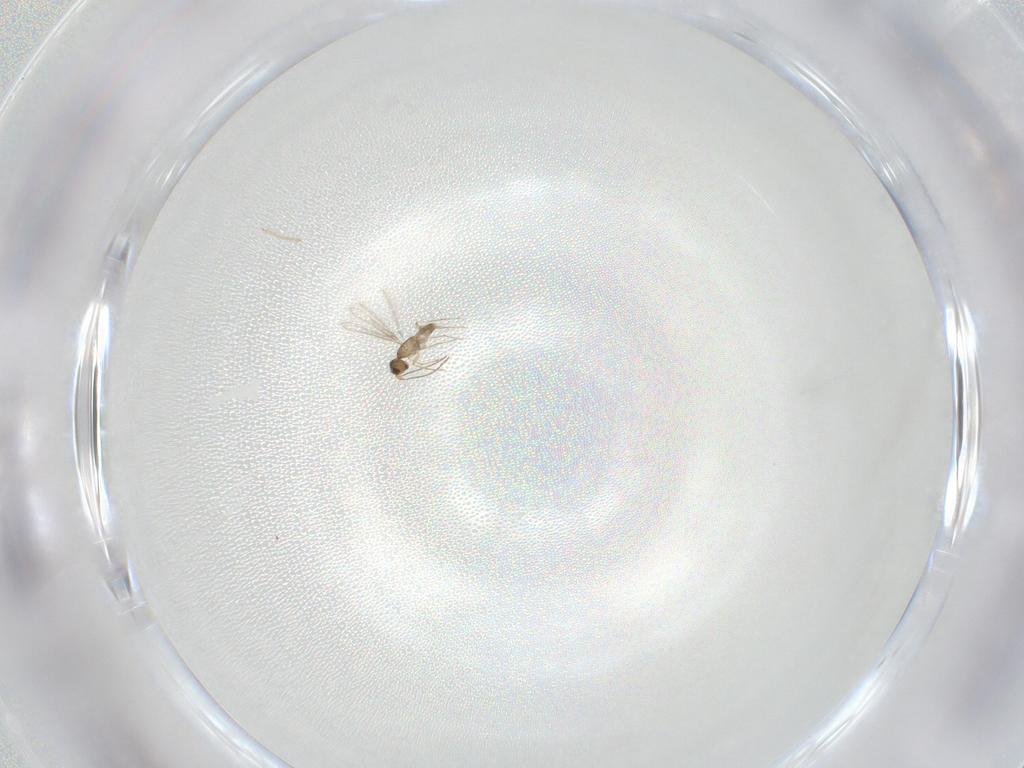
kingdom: Animalia
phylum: Arthropoda
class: Insecta
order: Hymenoptera
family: Mymaridae
